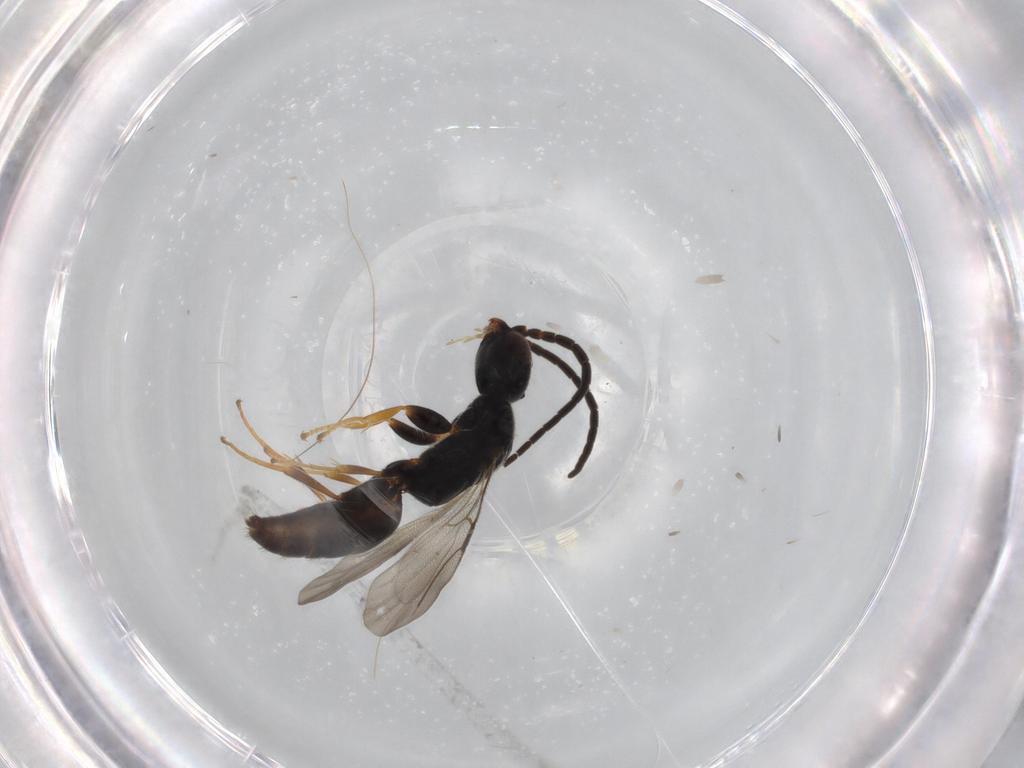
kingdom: Animalia
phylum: Arthropoda
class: Insecta
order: Hymenoptera
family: Bethylidae
